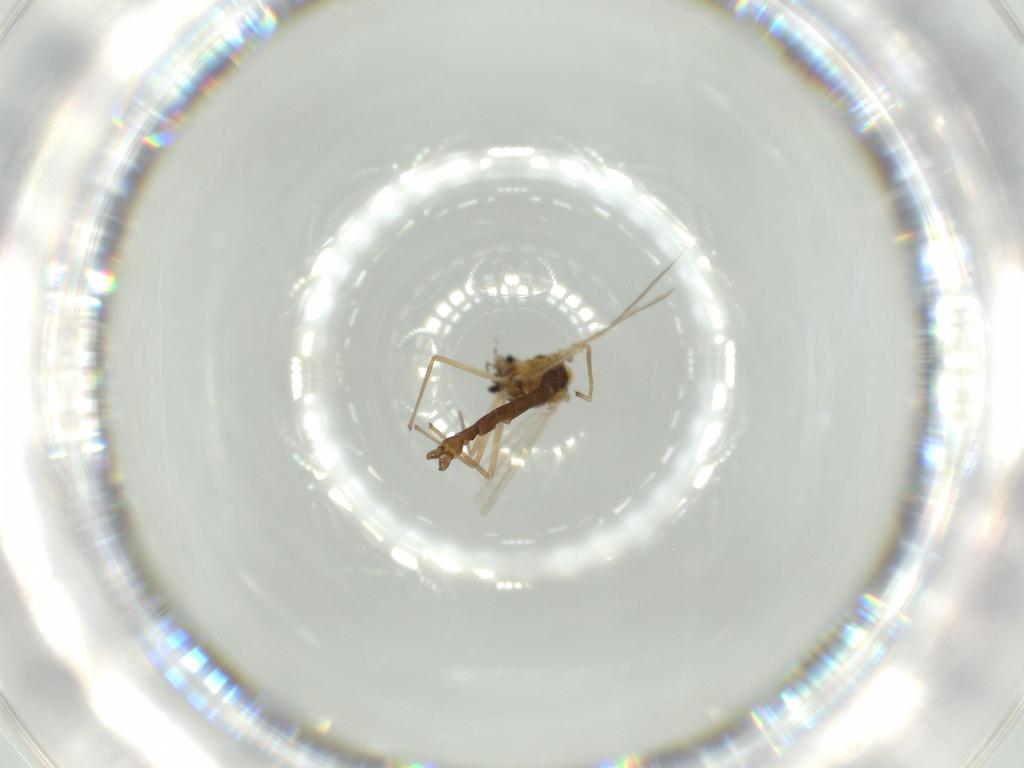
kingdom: Animalia
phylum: Arthropoda
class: Insecta
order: Diptera
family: Chironomidae
